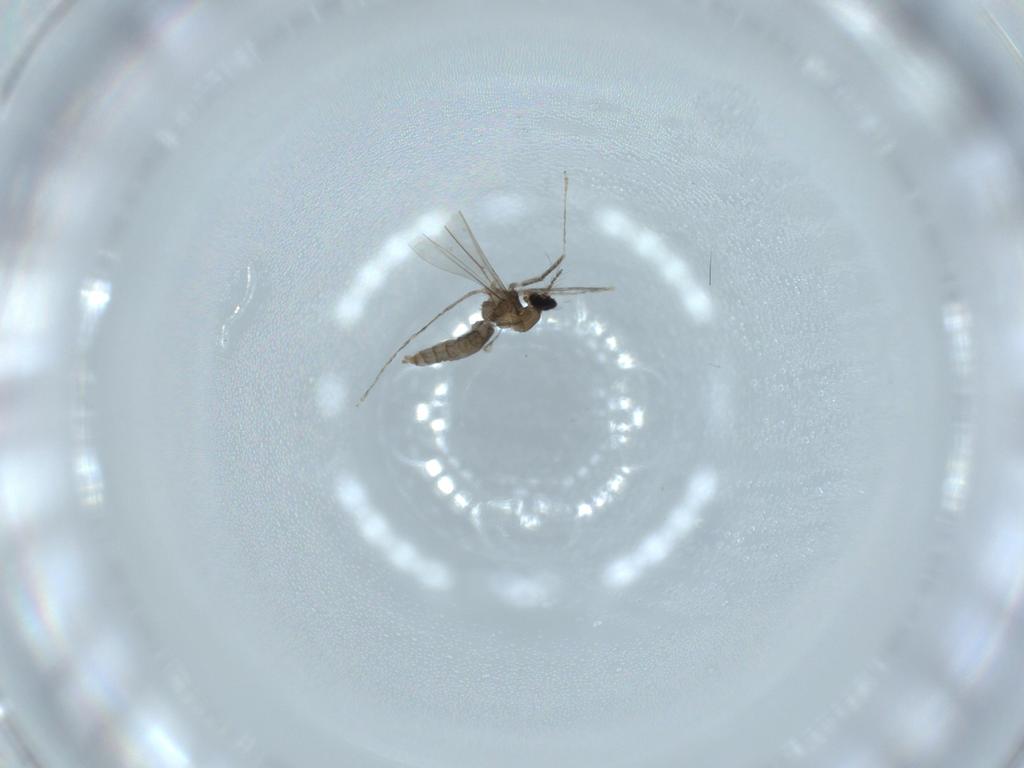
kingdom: Animalia
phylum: Arthropoda
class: Insecta
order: Diptera
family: Cecidomyiidae
